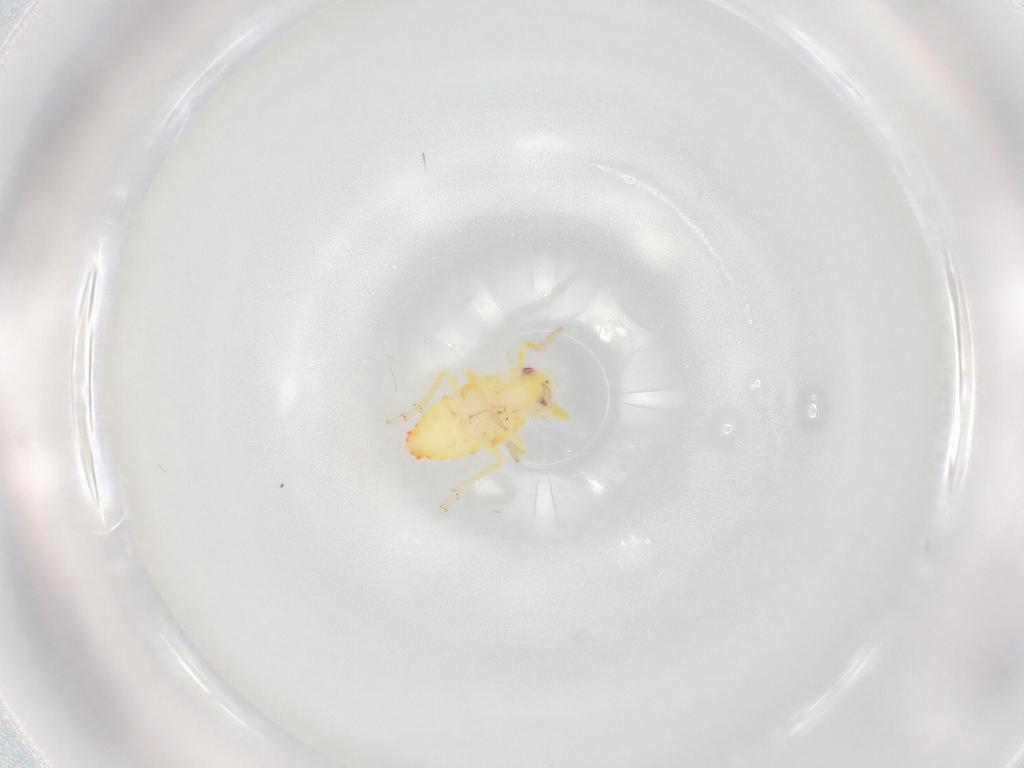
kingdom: Animalia
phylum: Arthropoda
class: Insecta
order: Hemiptera
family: Tropiduchidae
